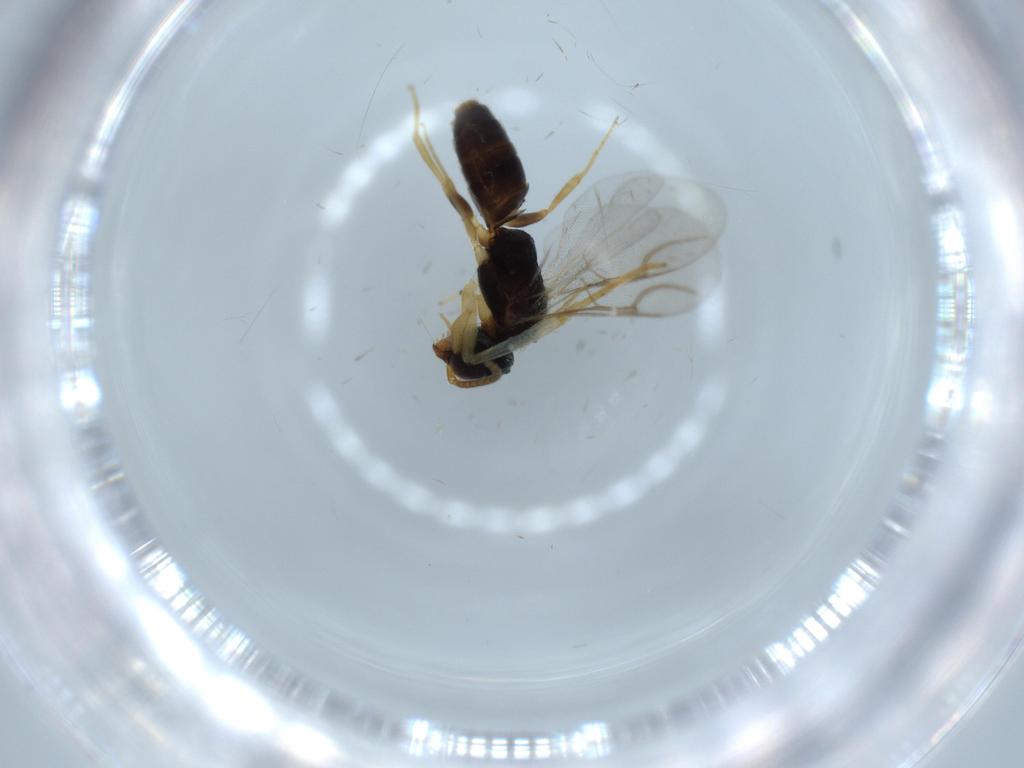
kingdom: Animalia
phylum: Arthropoda
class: Insecta
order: Hymenoptera
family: Bethylidae
